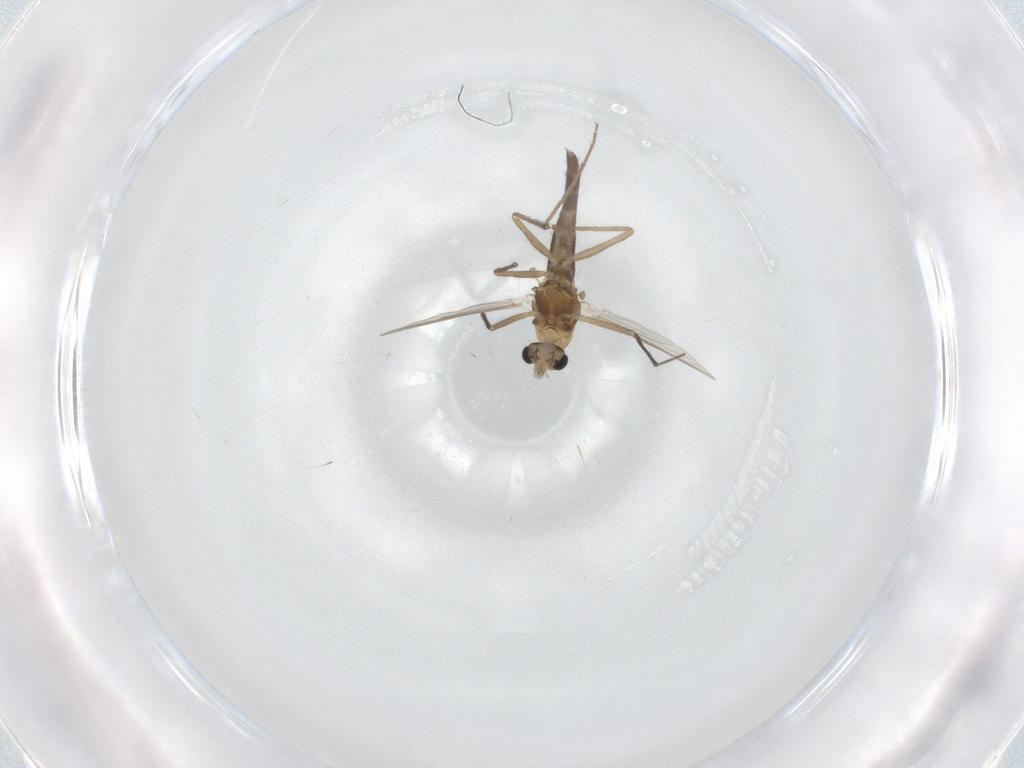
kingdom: Animalia
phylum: Arthropoda
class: Insecta
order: Diptera
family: Chironomidae
